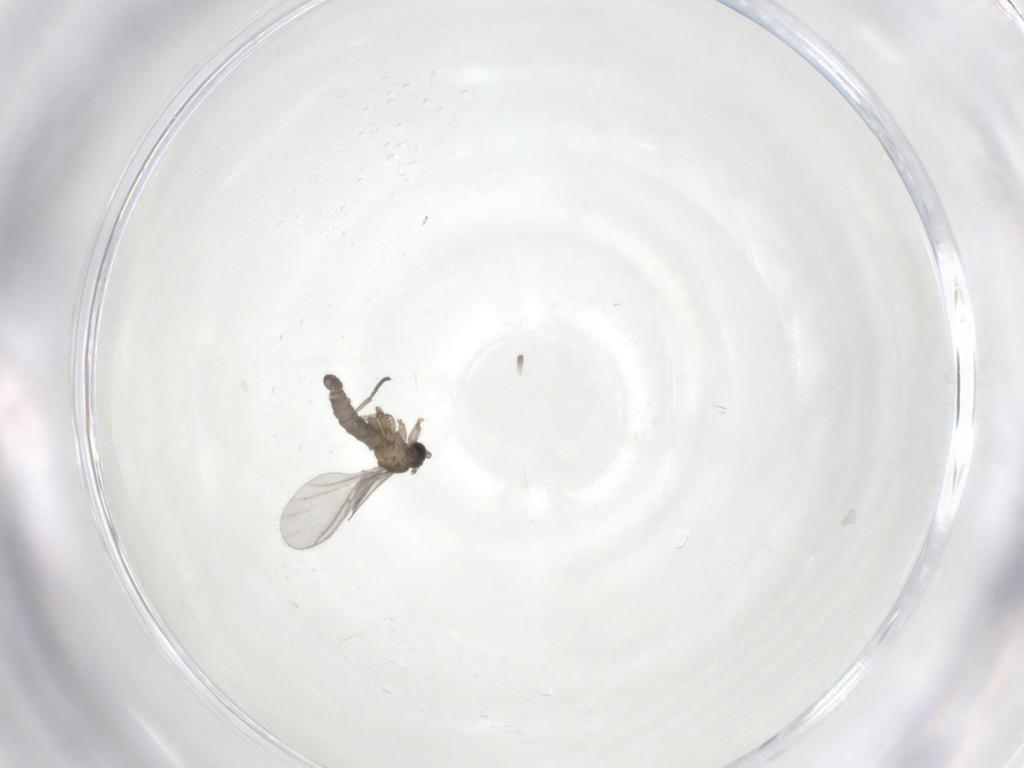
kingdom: Animalia
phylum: Arthropoda
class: Insecta
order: Diptera
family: Sciaridae
